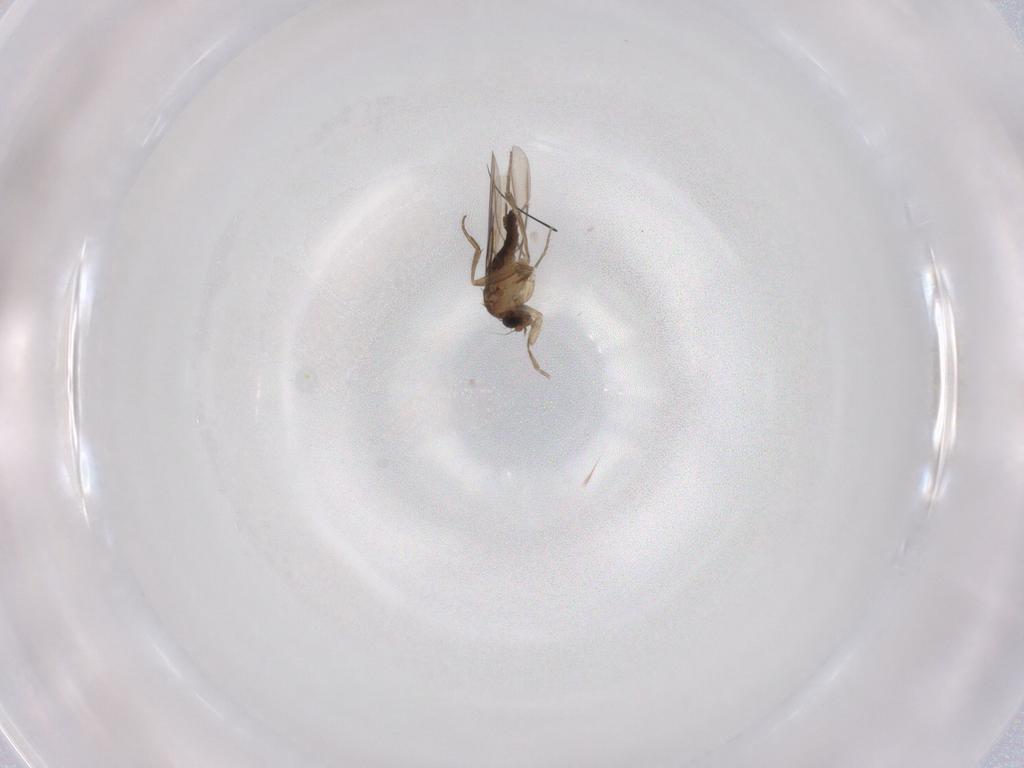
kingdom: Animalia
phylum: Arthropoda
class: Insecta
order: Diptera
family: Phoridae
